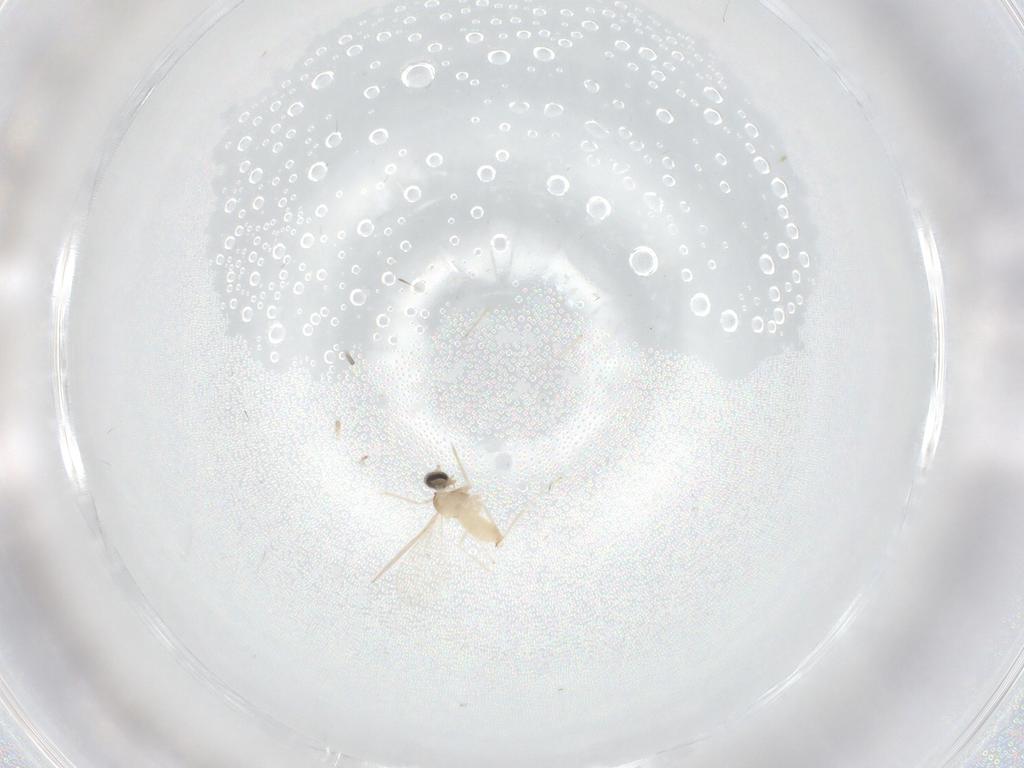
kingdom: Animalia
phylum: Arthropoda
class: Insecta
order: Diptera
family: Cecidomyiidae
